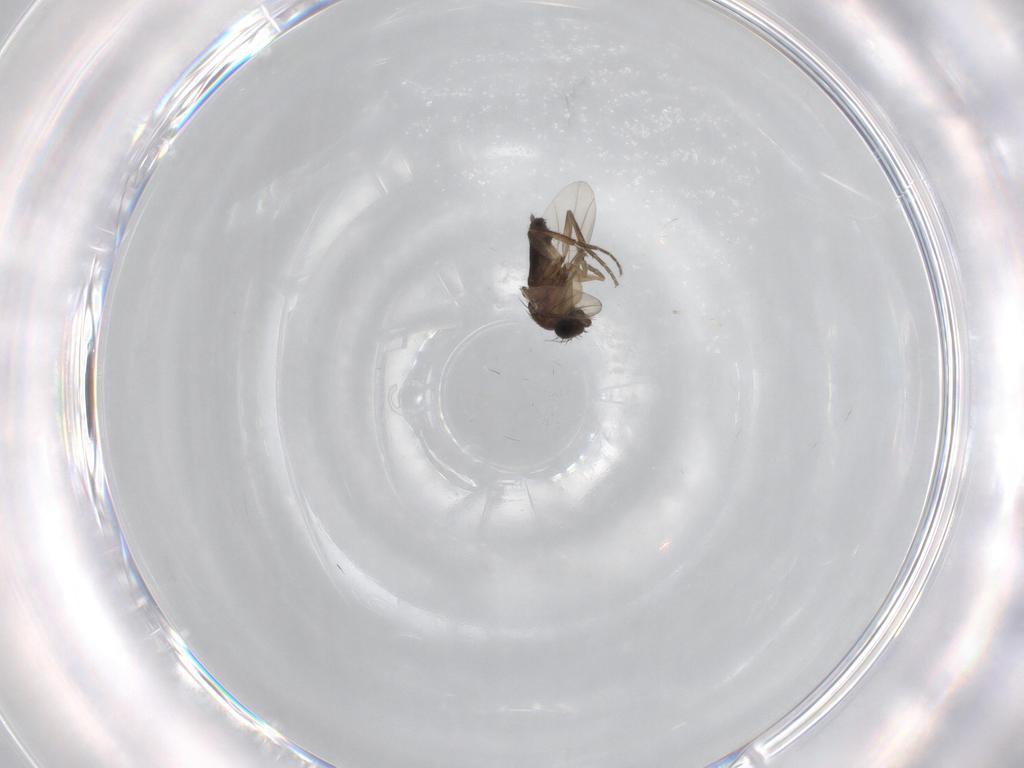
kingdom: Animalia
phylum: Arthropoda
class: Insecta
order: Diptera
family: Phoridae
